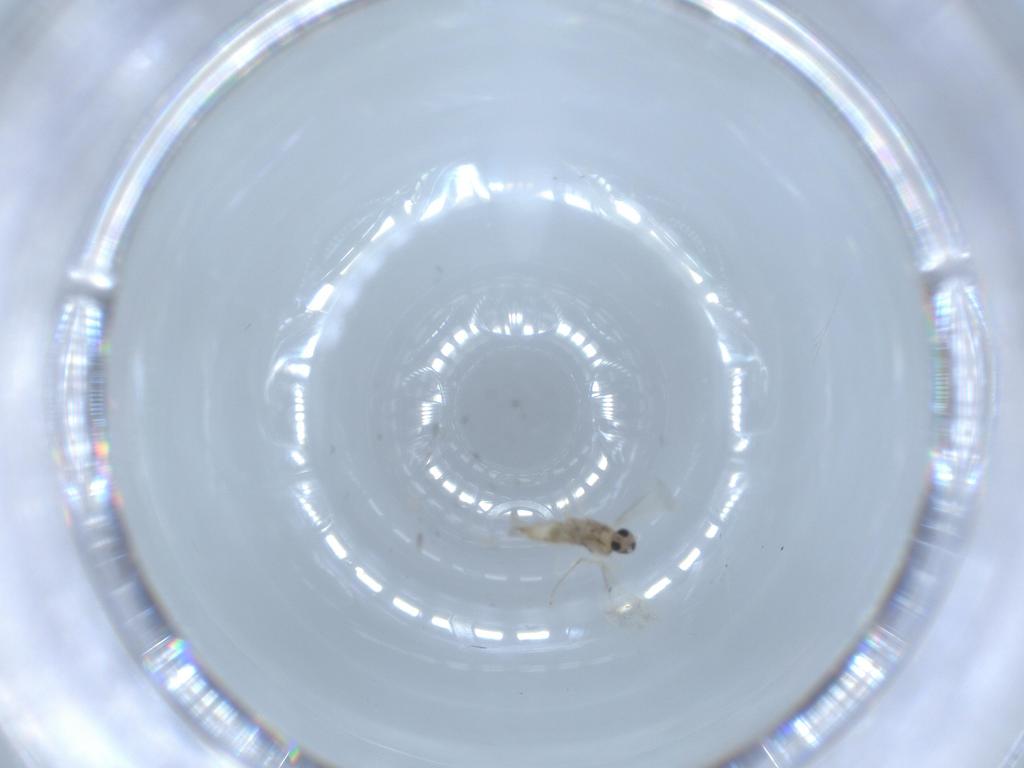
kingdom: Animalia
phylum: Arthropoda
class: Insecta
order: Diptera
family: Cecidomyiidae
